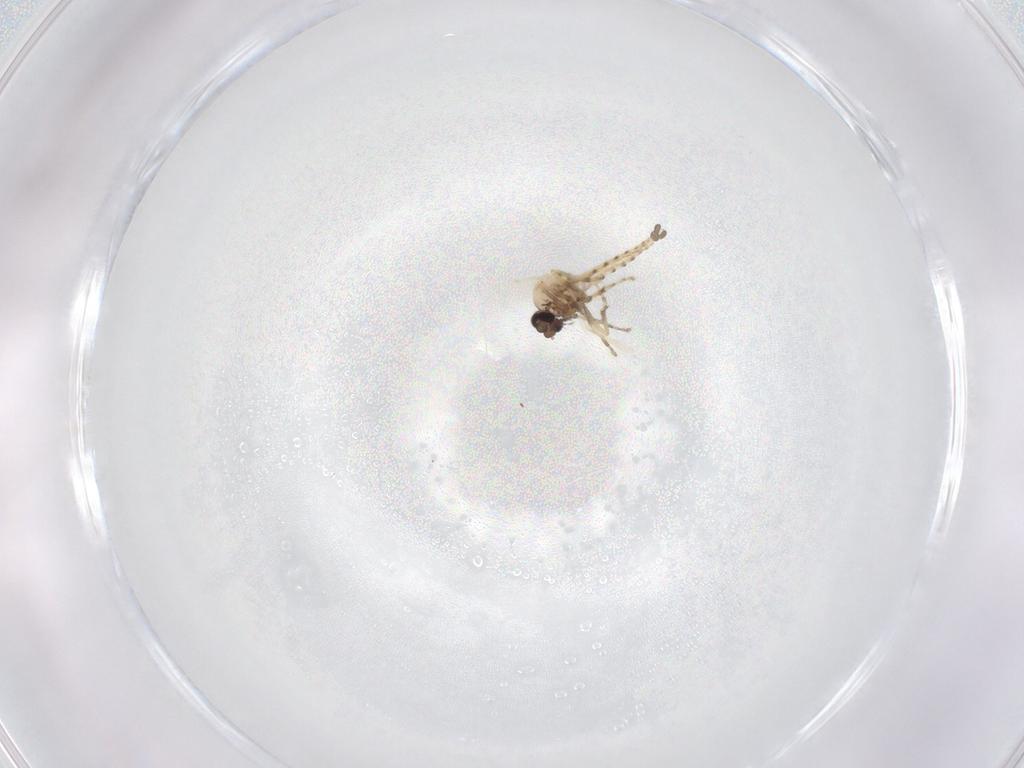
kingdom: Animalia
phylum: Arthropoda
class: Insecta
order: Diptera
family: Ceratopogonidae
